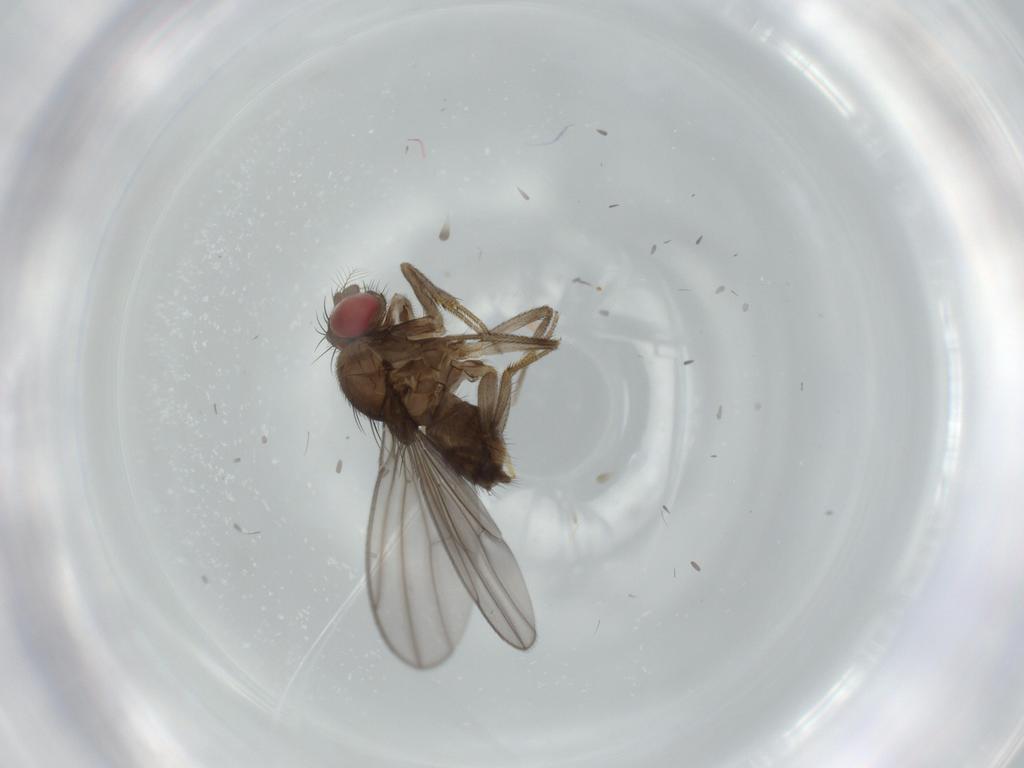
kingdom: Animalia
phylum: Arthropoda
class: Insecta
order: Diptera
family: Drosophilidae
